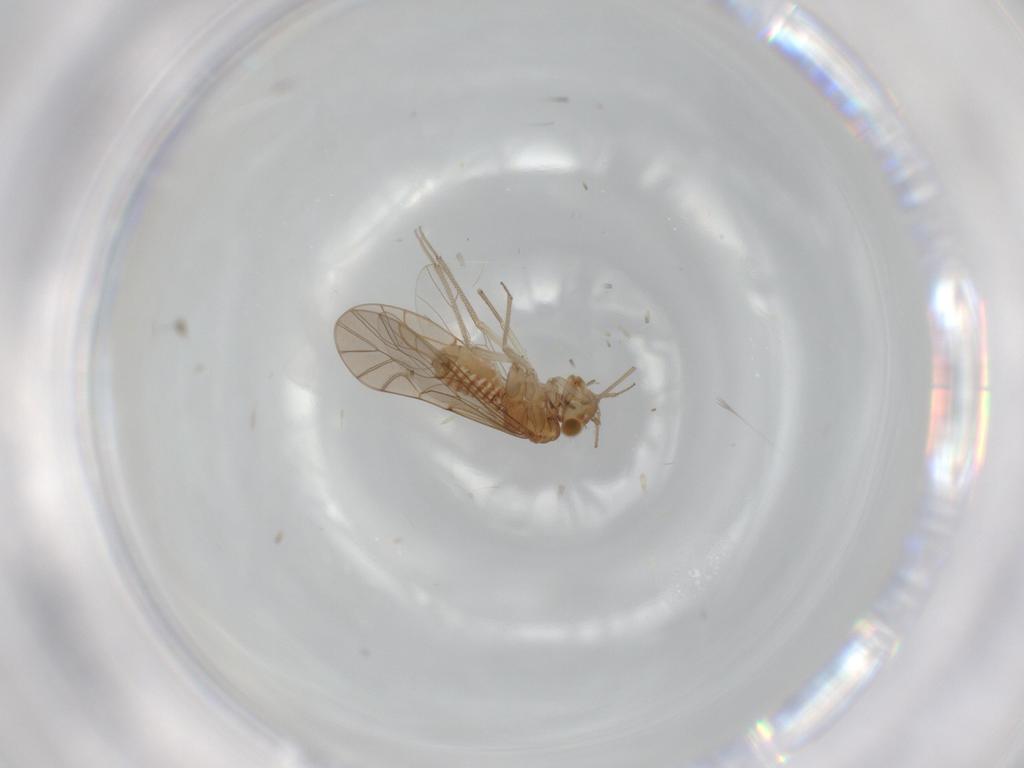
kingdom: Animalia
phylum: Arthropoda
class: Insecta
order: Psocodea
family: Lachesillidae
